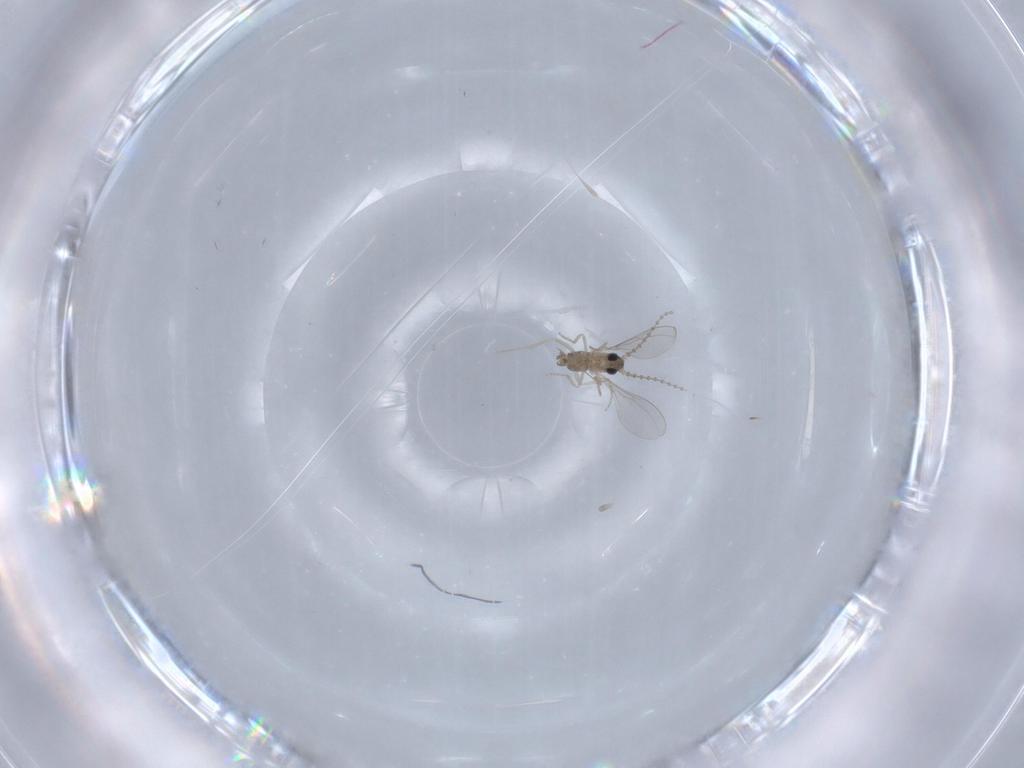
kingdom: Animalia
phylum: Arthropoda
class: Insecta
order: Diptera
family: Cecidomyiidae
